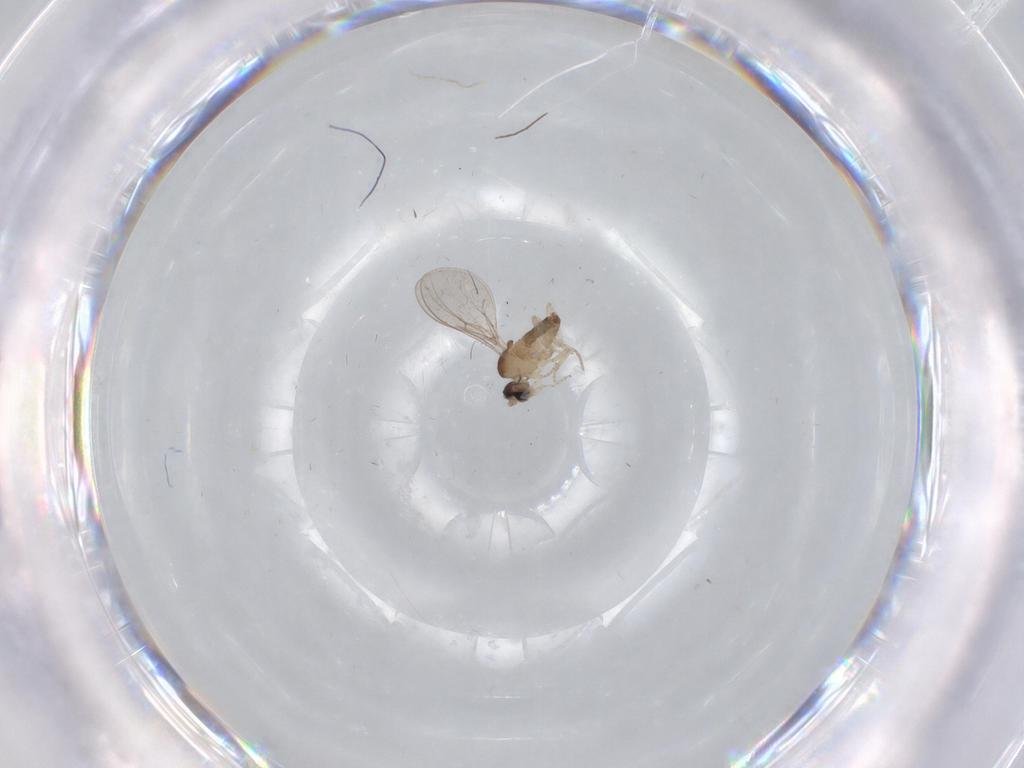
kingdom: Animalia
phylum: Arthropoda
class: Insecta
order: Diptera
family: Cecidomyiidae
